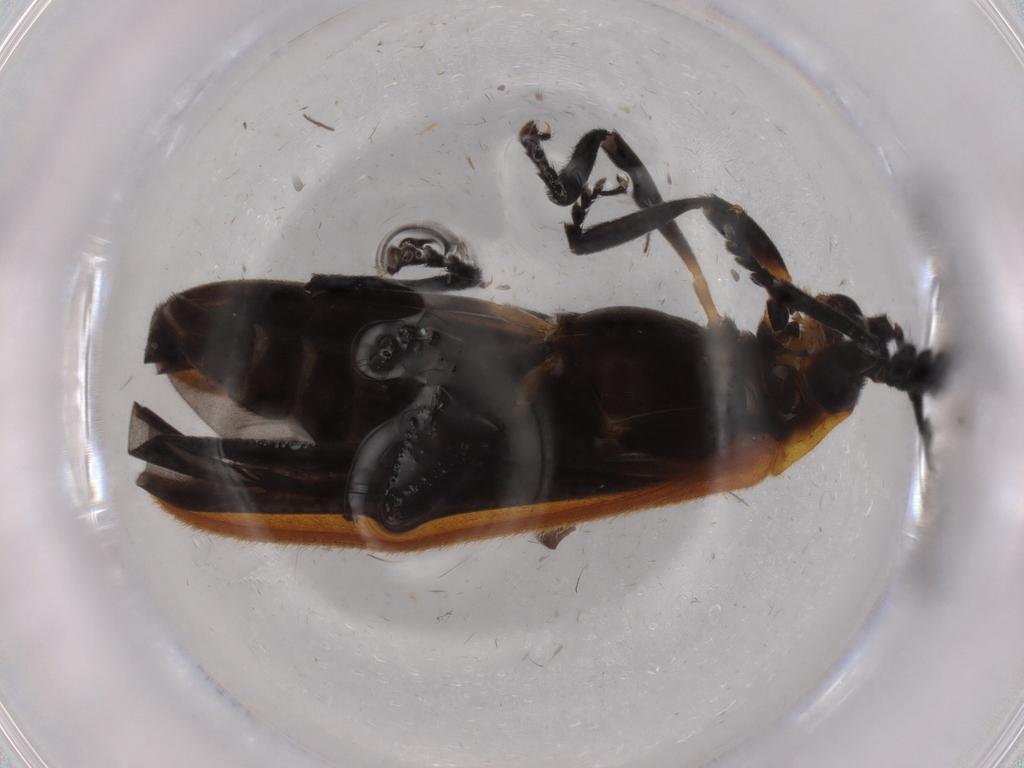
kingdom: Animalia
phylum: Arthropoda
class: Insecta
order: Coleoptera
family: Lycidae
